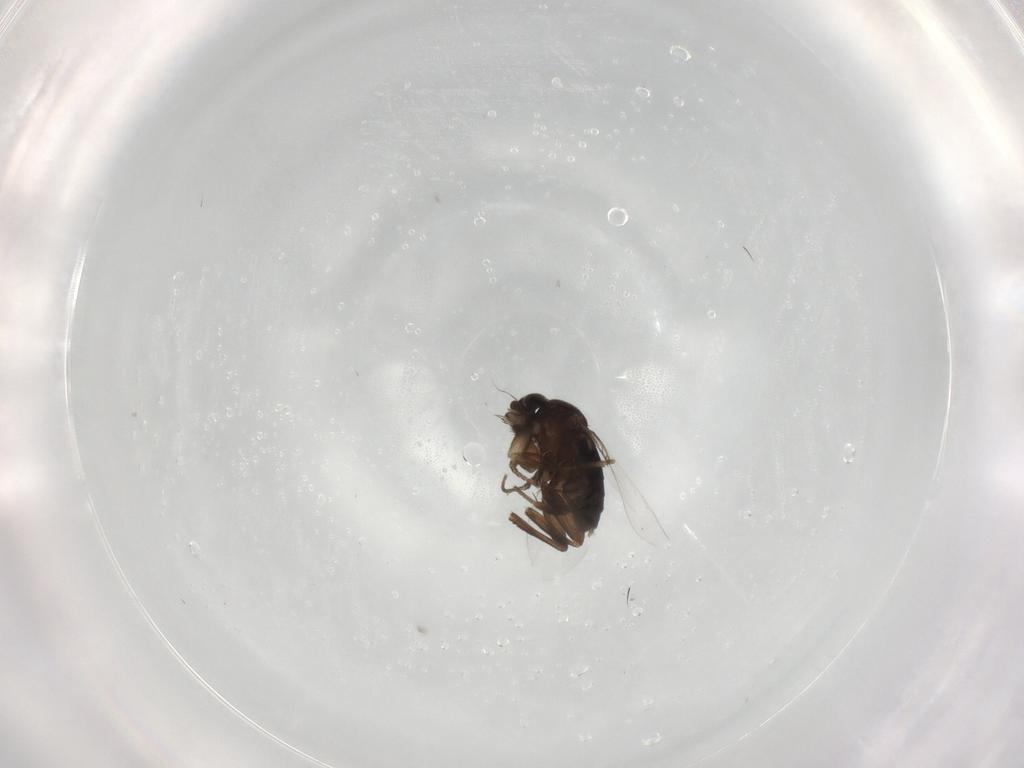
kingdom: Animalia
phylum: Arthropoda
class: Insecta
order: Diptera
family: Phoridae
